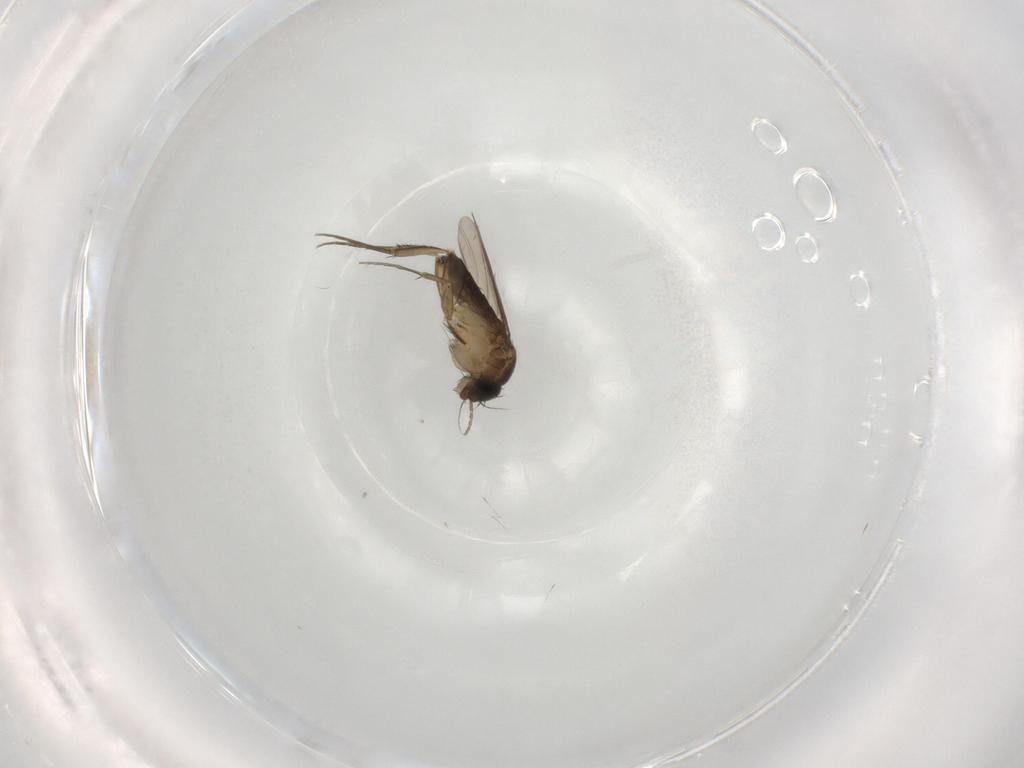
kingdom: Animalia
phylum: Arthropoda
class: Insecta
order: Diptera
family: Phoridae
